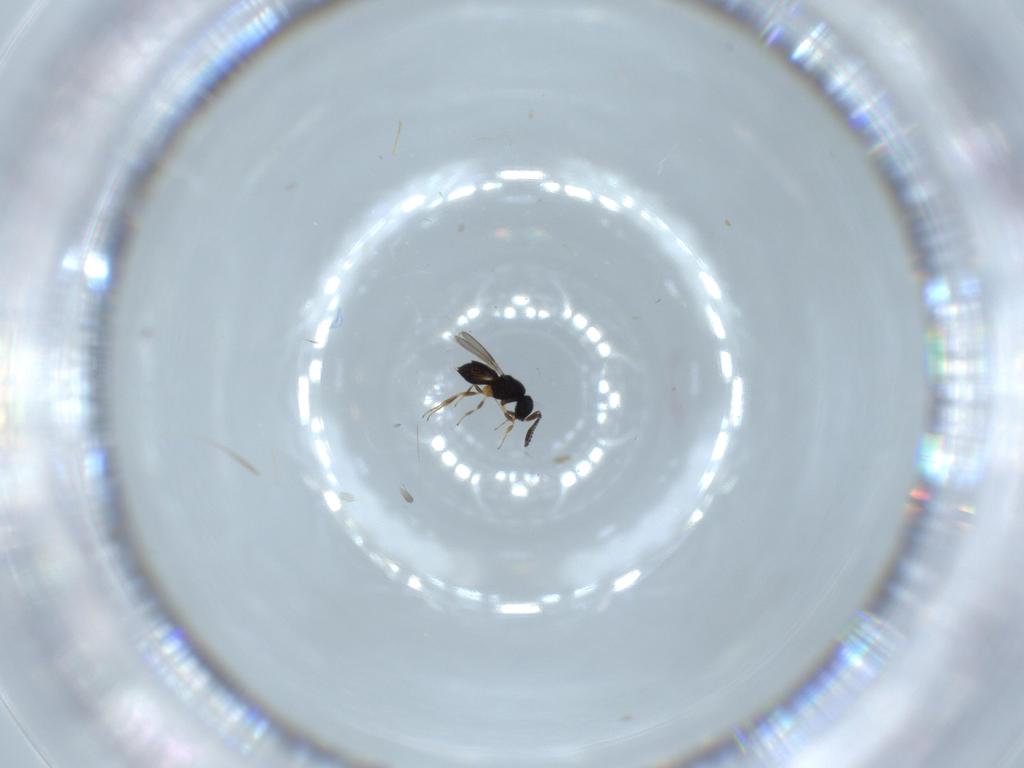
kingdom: Animalia
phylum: Arthropoda
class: Insecta
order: Hymenoptera
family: Scelionidae
